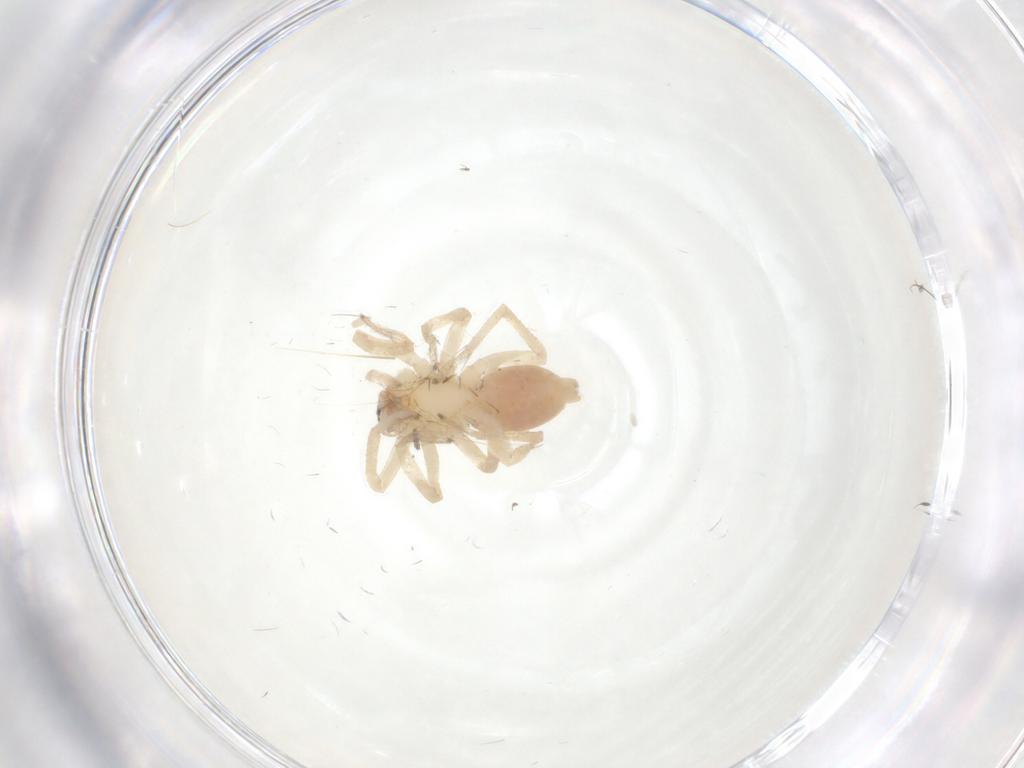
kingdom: Animalia
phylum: Arthropoda
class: Arachnida
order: Araneae
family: Clubionidae
